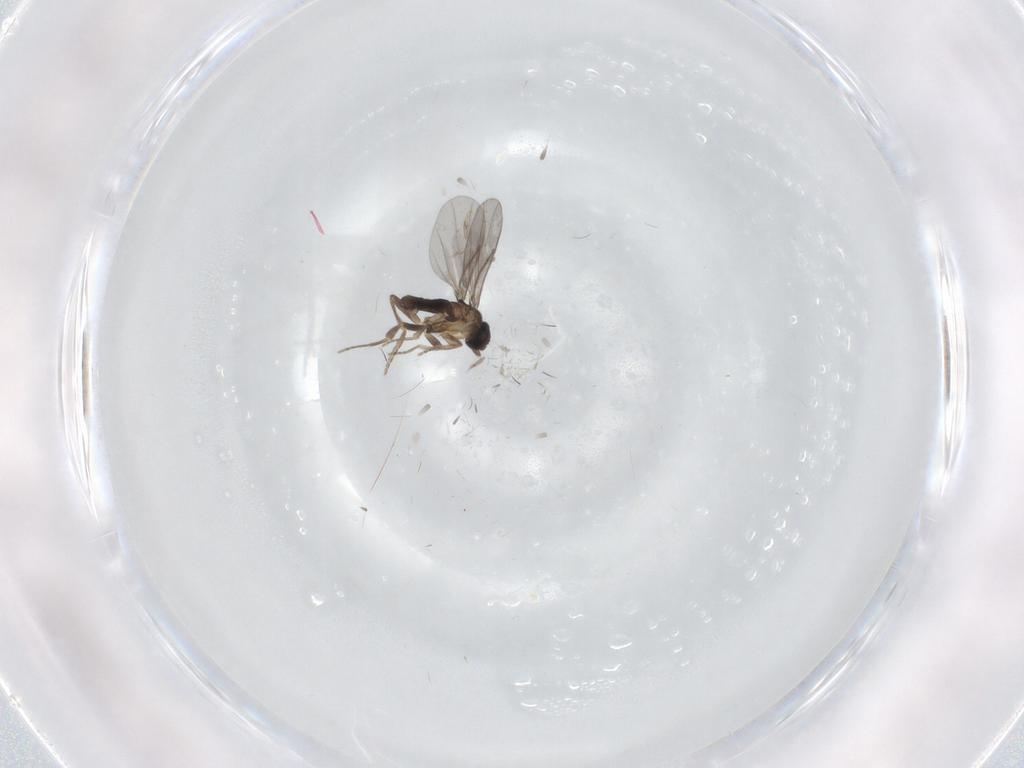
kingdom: Animalia
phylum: Arthropoda
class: Insecta
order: Diptera
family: Cecidomyiidae
